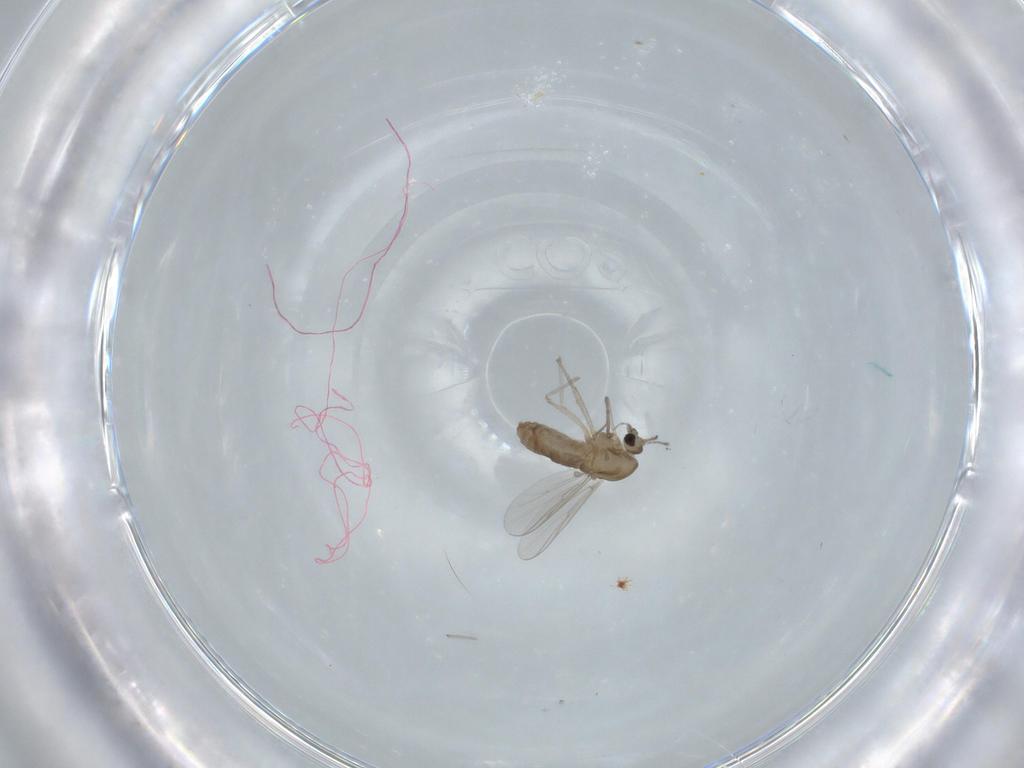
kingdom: Animalia
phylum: Arthropoda
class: Insecta
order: Diptera
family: Chironomidae
